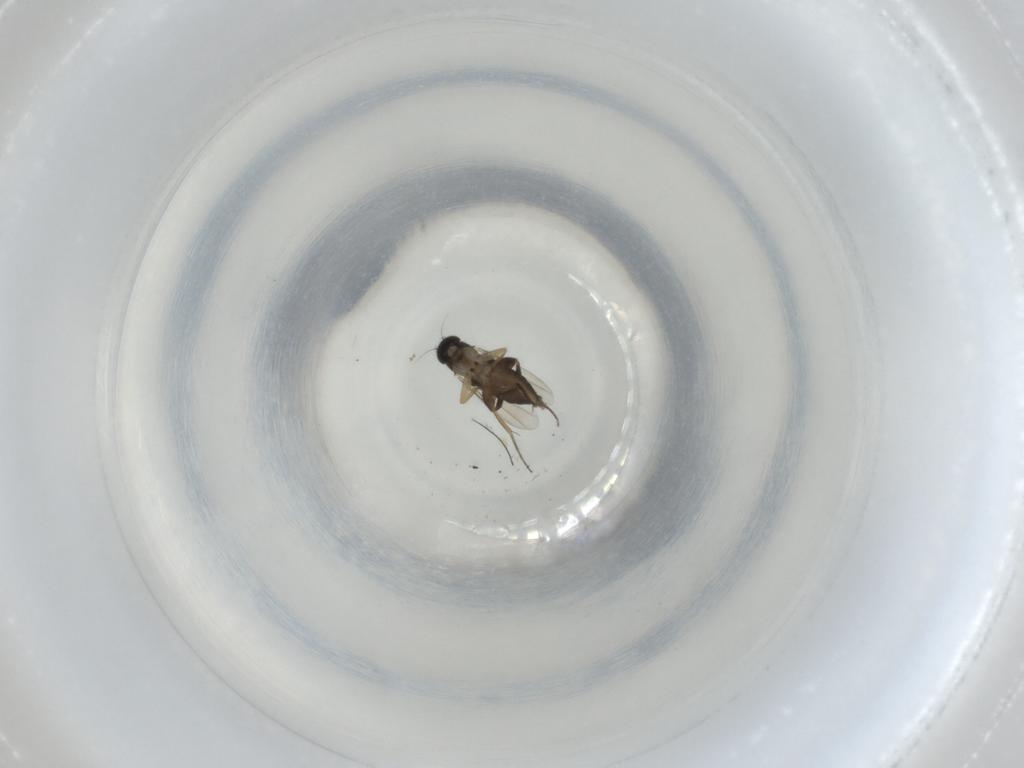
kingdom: Animalia
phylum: Arthropoda
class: Insecta
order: Diptera
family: Phoridae
